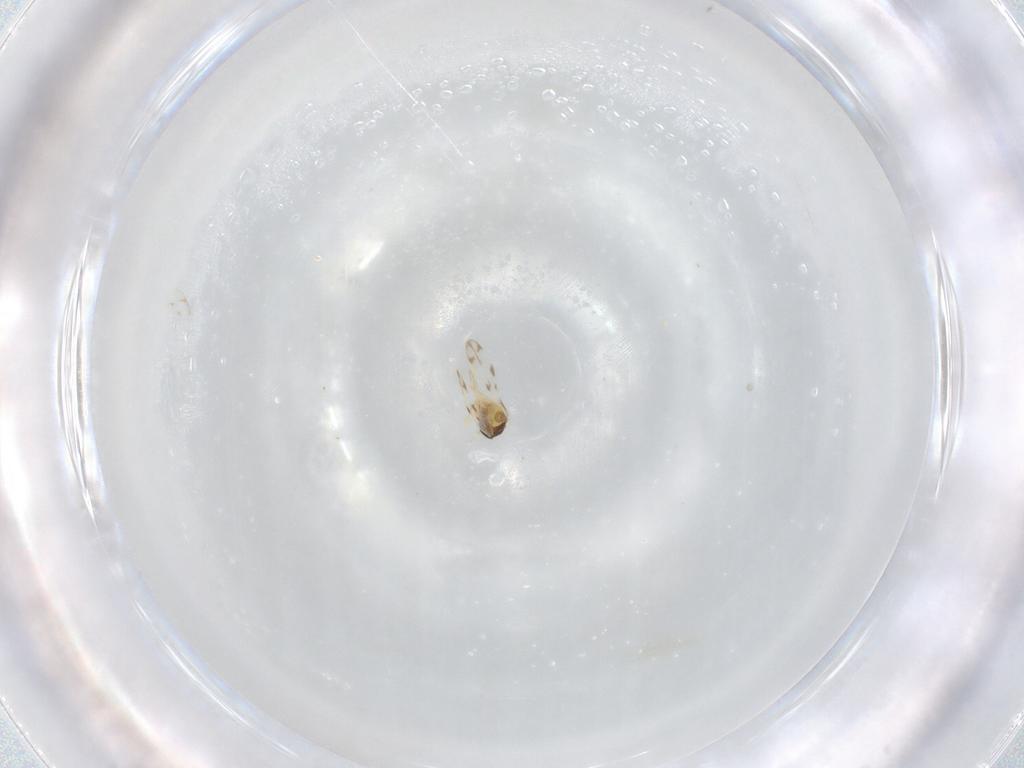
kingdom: Animalia
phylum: Arthropoda
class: Insecta
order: Hemiptera
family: Aleyrodidae
